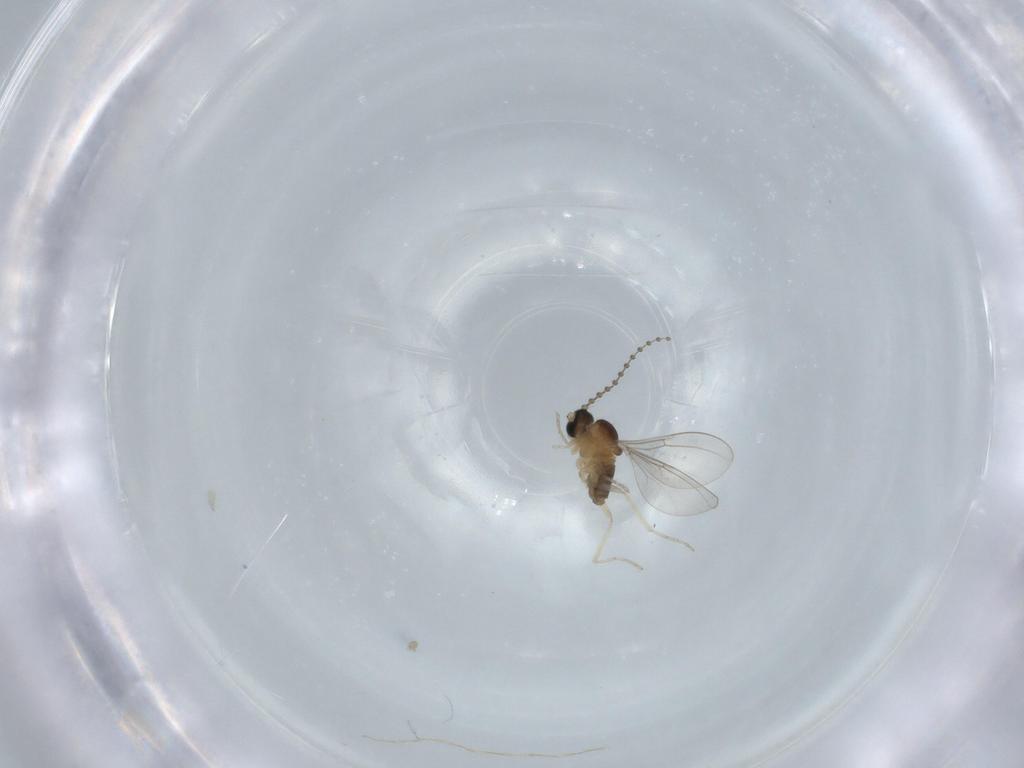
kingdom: Animalia
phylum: Arthropoda
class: Insecta
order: Diptera
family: Cecidomyiidae
